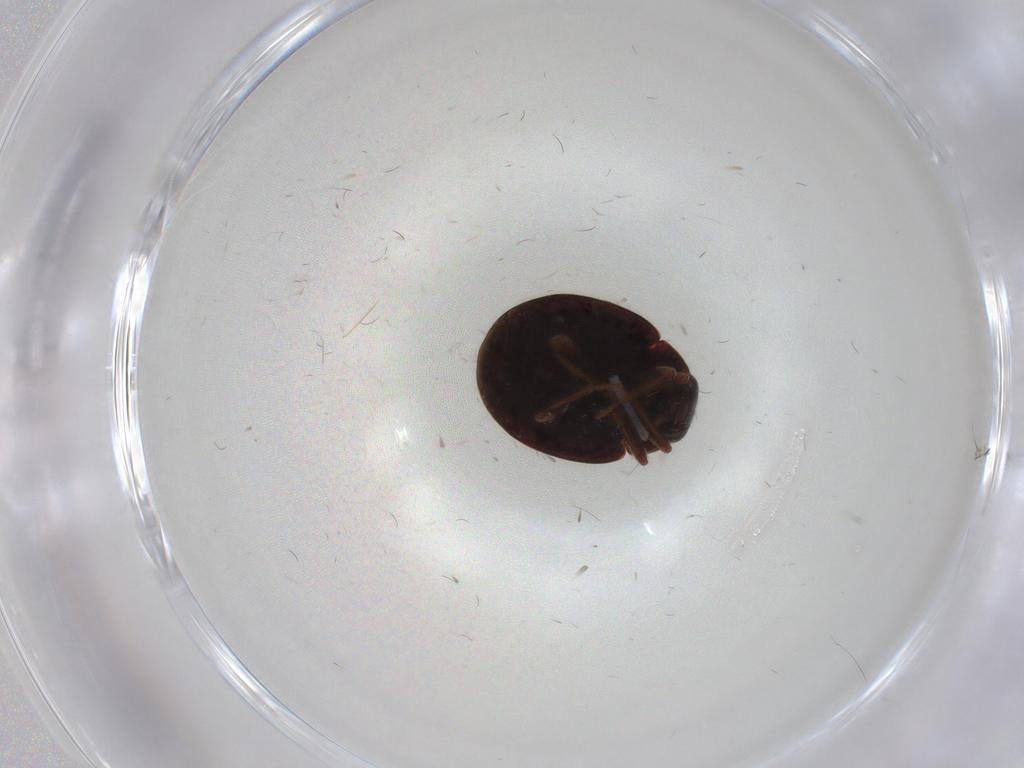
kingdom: Animalia
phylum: Arthropoda
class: Insecta
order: Coleoptera
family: Coccinellidae
